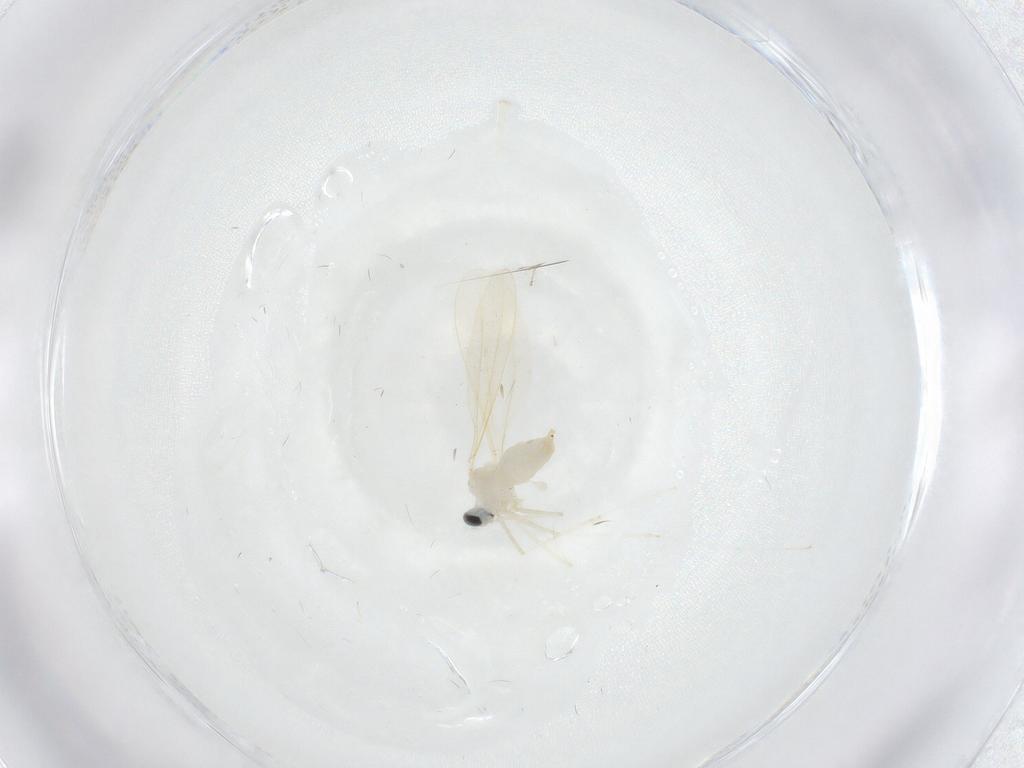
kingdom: Animalia
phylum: Arthropoda
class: Insecta
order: Diptera
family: Cecidomyiidae
